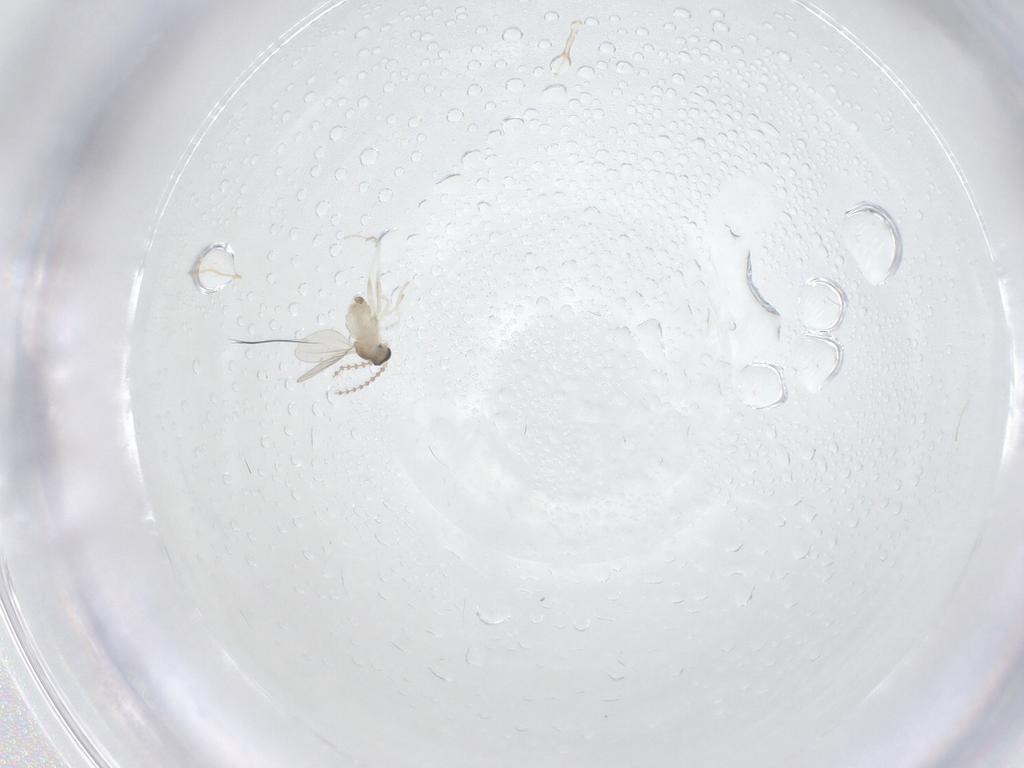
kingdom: Animalia
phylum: Arthropoda
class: Insecta
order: Diptera
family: Cecidomyiidae
